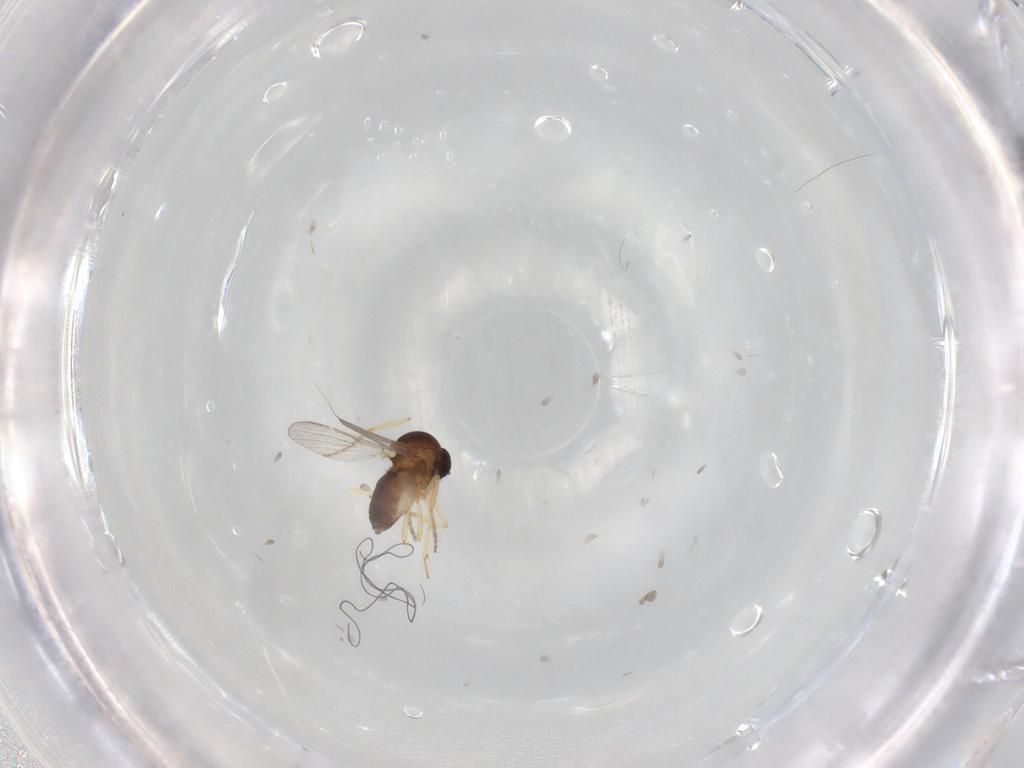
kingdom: Animalia
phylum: Arthropoda
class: Insecta
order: Diptera
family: Ceratopogonidae
